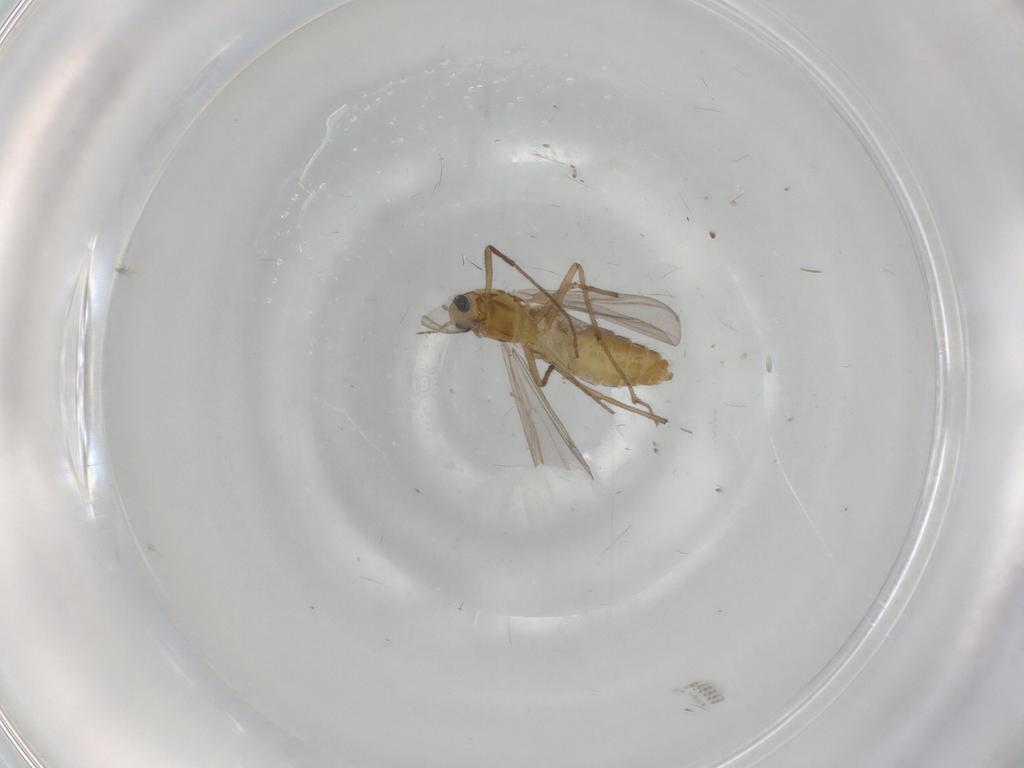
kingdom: Animalia
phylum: Arthropoda
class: Insecta
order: Diptera
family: Chironomidae
